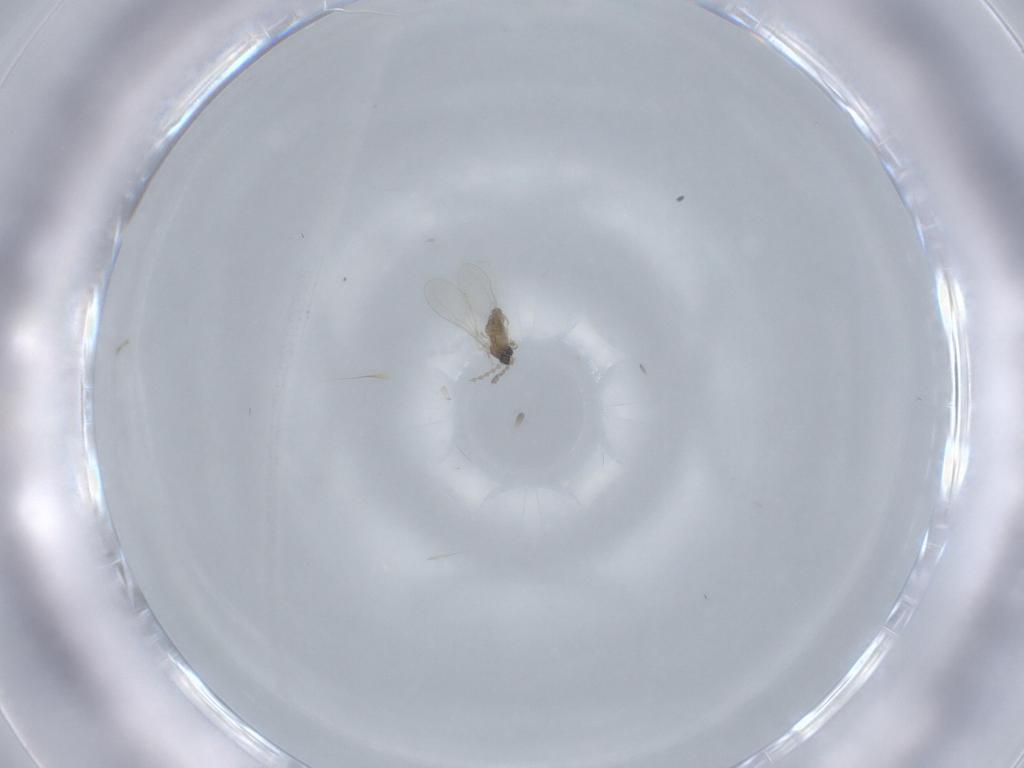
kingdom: Animalia
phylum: Arthropoda
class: Insecta
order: Diptera
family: Cecidomyiidae
